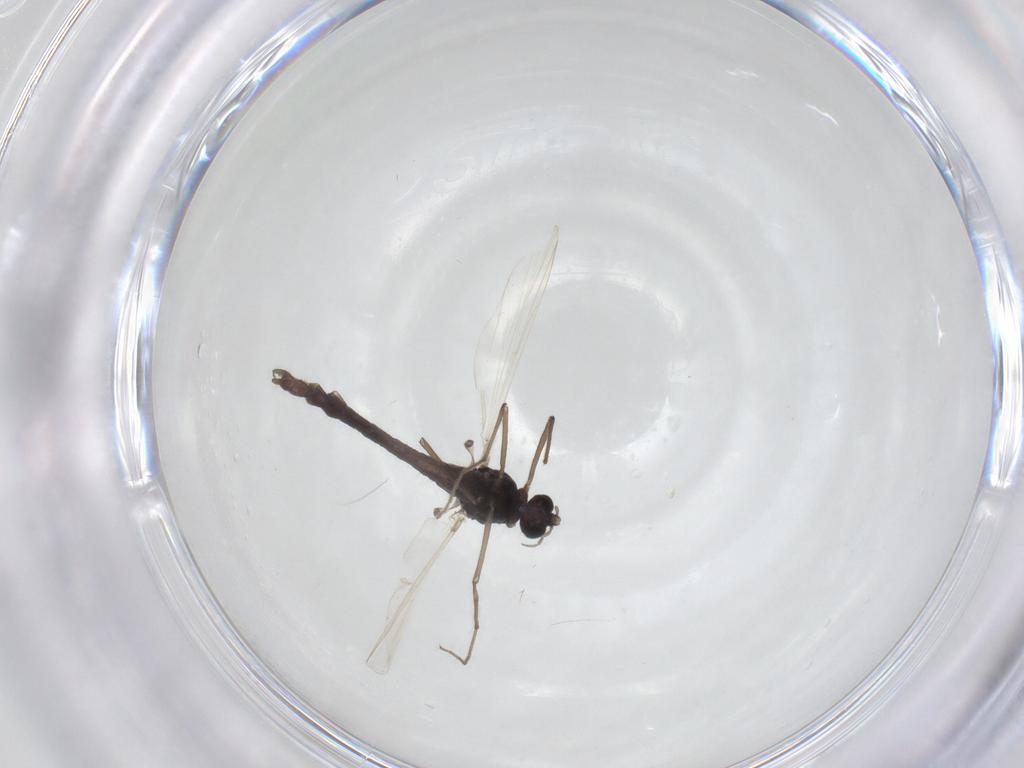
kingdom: Animalia
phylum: Arthropoda
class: Insecta
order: Diptera
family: Chironomidae
